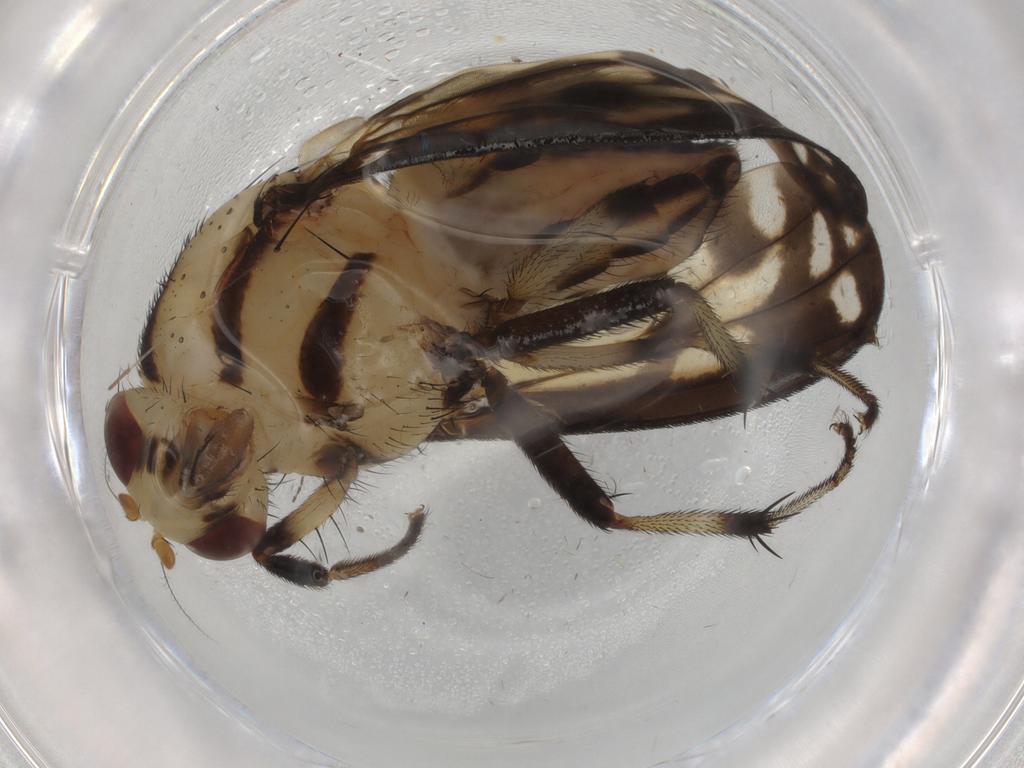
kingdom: Animalia
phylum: Arthropoda
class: Insecta
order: Diptera
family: Psychodidae
